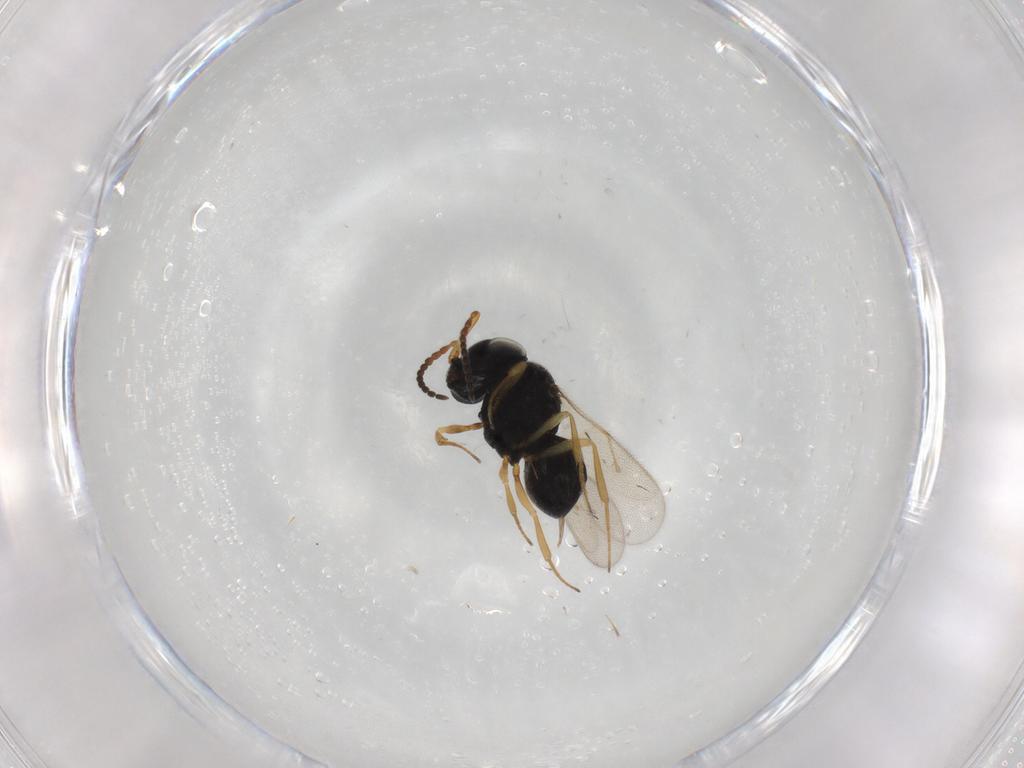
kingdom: Animalia
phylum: Arthropoda
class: Insecta
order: Hymenoptera
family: Scelionidae
